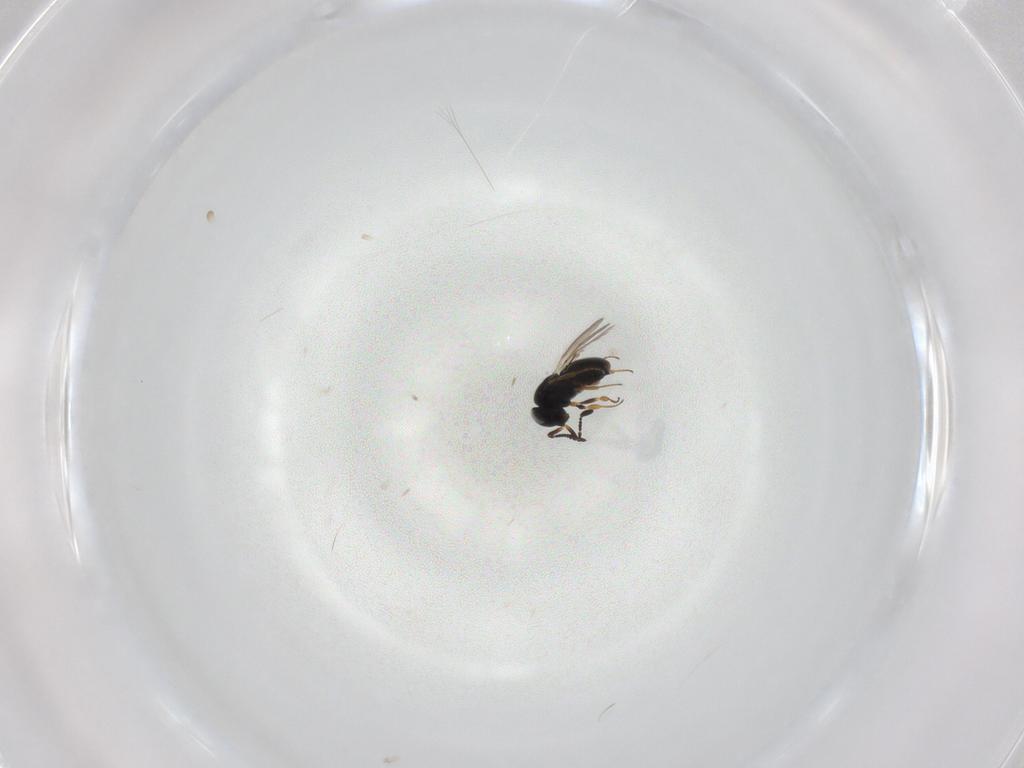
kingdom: Animalia
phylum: Arthropoda
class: Insecta
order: Hymenoptera
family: Scelionidae
